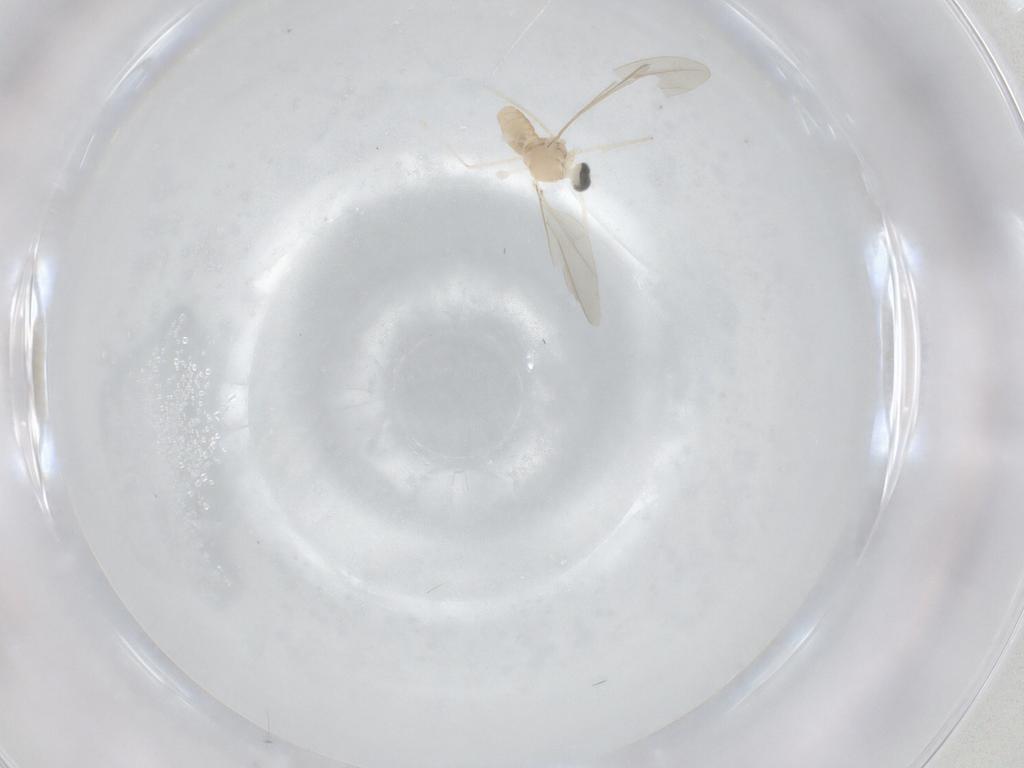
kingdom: Animalia
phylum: Arthropoda
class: Insecta
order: Diptera
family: Cecidomyiidae
